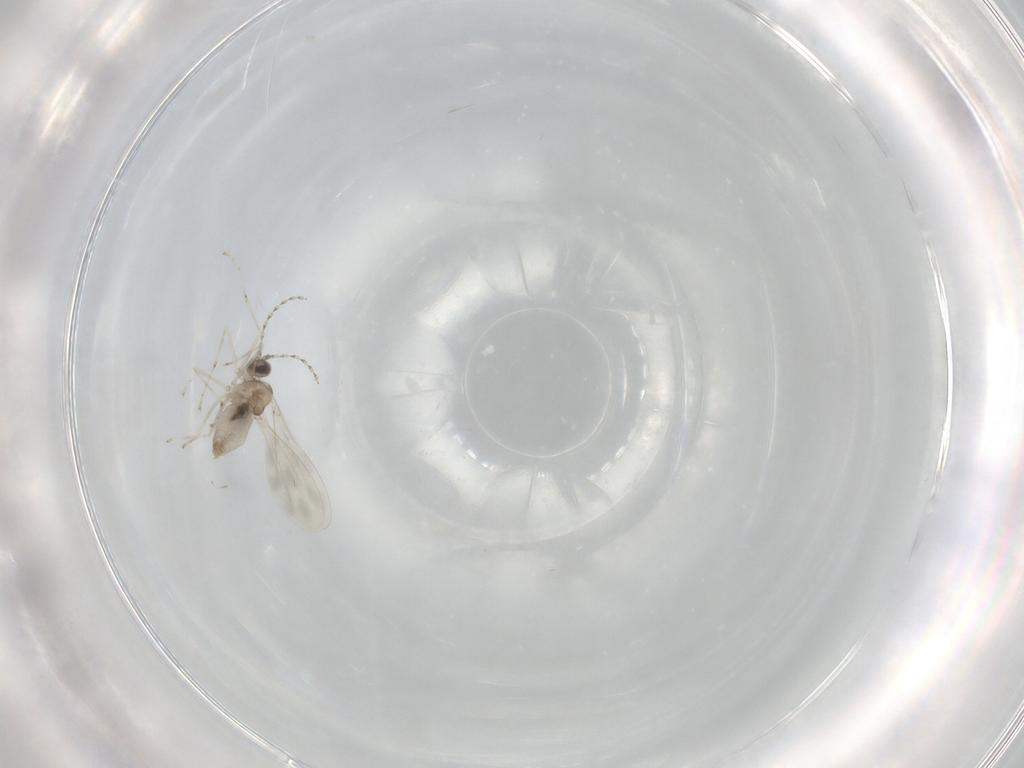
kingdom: Animalia
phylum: Arthropoda
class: Insecta
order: Diptera
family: Cecidomyiidae
